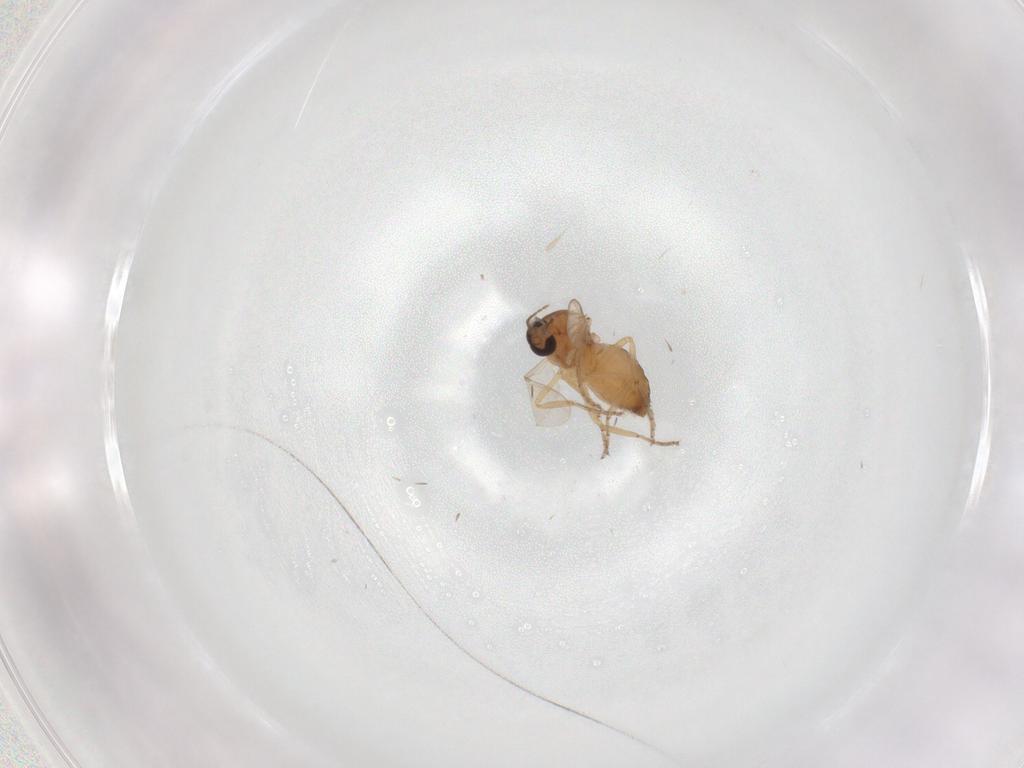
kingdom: Animalia
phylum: Arthropoda
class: Insecta
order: Diptera
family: Ceratopogonidae
